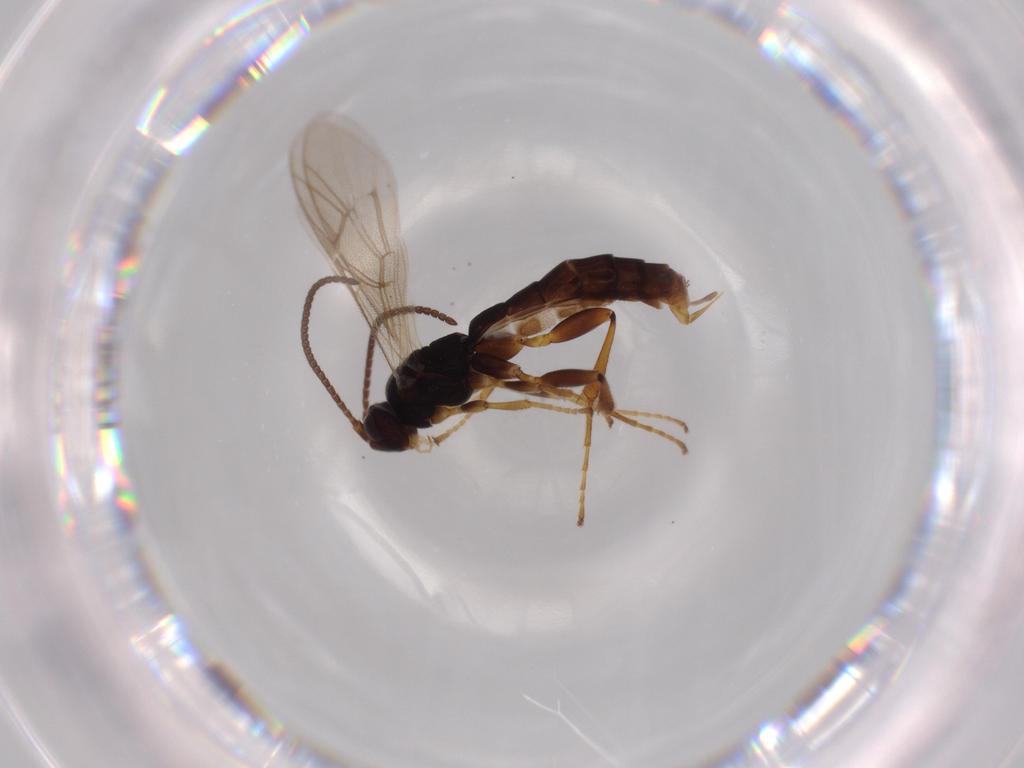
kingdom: Animalia
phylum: Arthropoda
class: Insecta
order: Hymenoptera
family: Ichneumonidae
